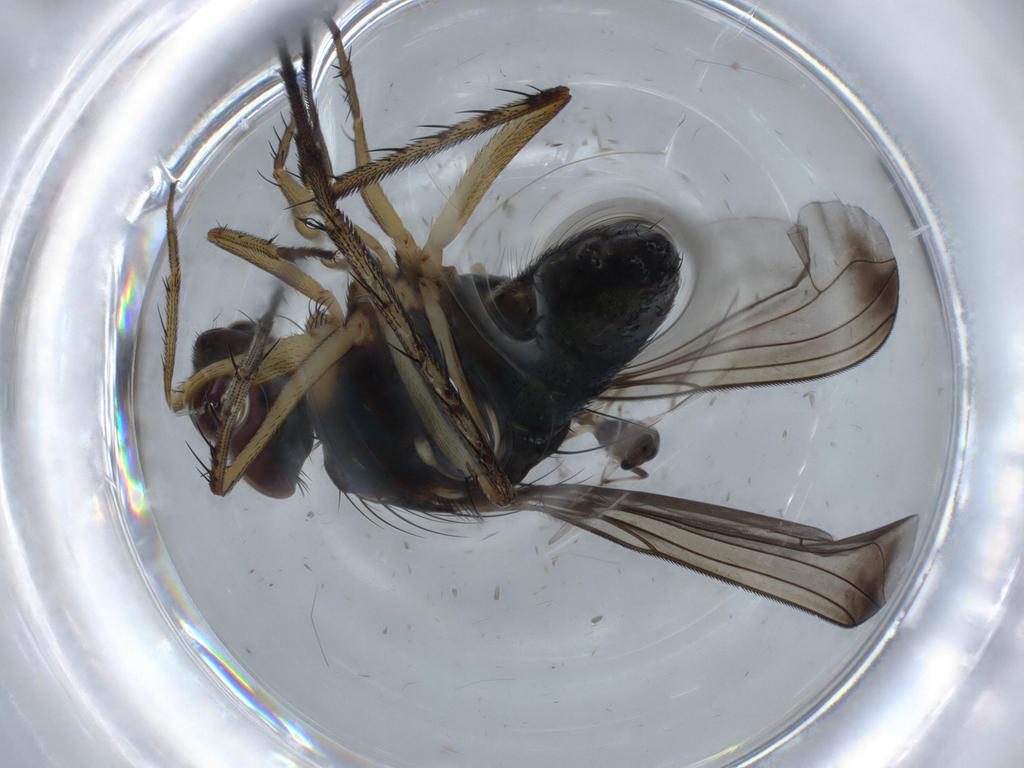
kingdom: Animalia
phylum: Arthropoda
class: Insecta
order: Diptera
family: Dolichopodidae
